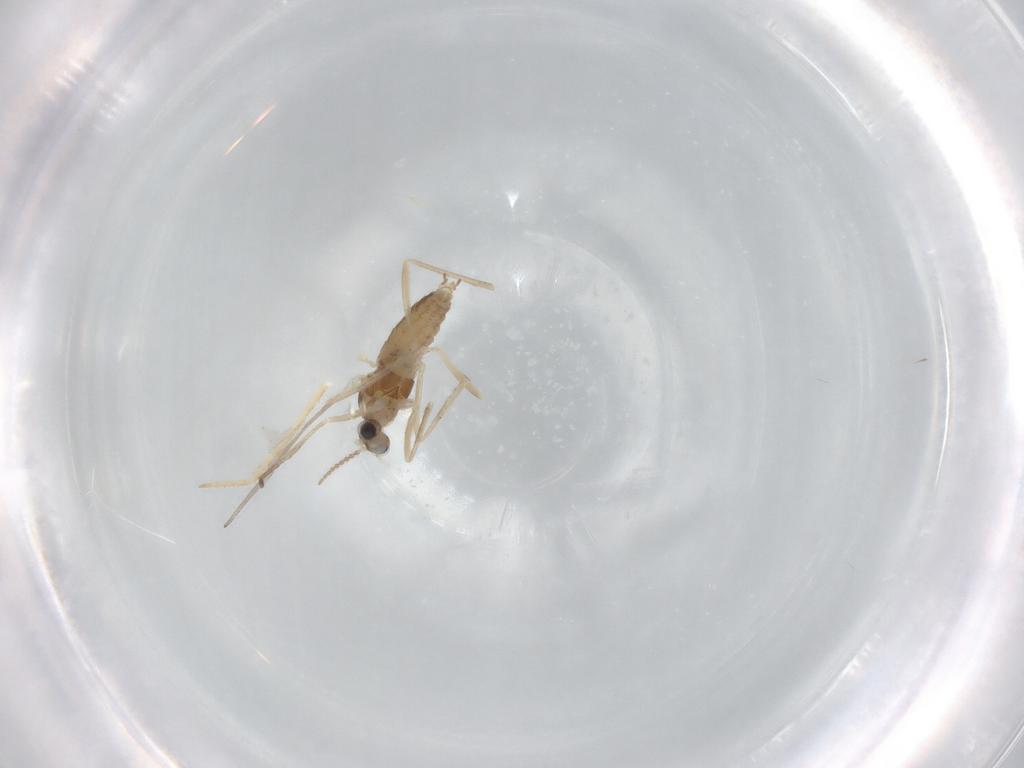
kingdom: Animalia
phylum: Arthropoda
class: Insecta
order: Diptera
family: Cecidomyiidae
